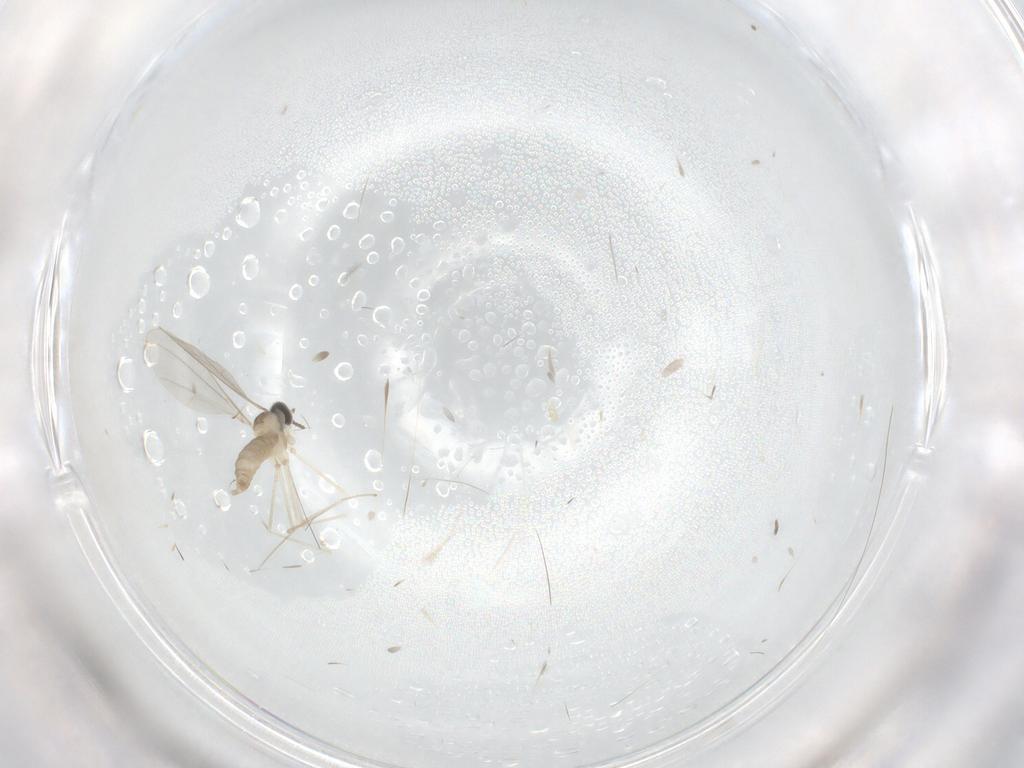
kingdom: Animalia
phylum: Arthropoda
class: Insecta
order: Diptera
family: Cecidomyiidae
